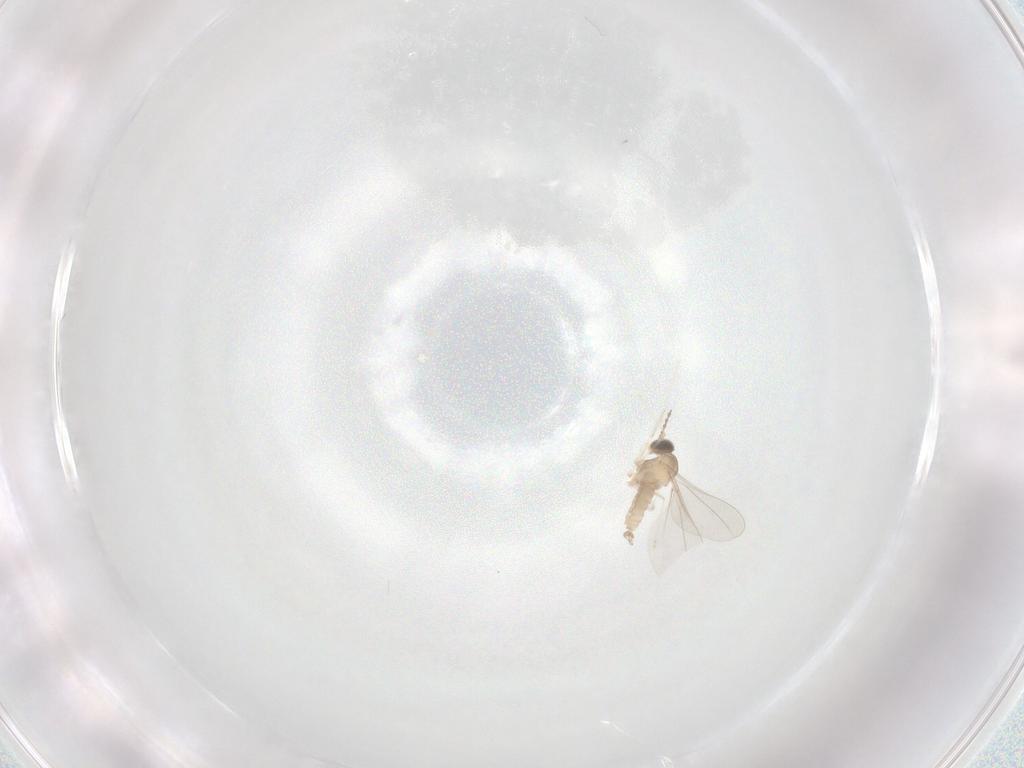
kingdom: Animalia
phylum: Arthropoda
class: Insecta
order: Diptera
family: Cecidomyiidae
